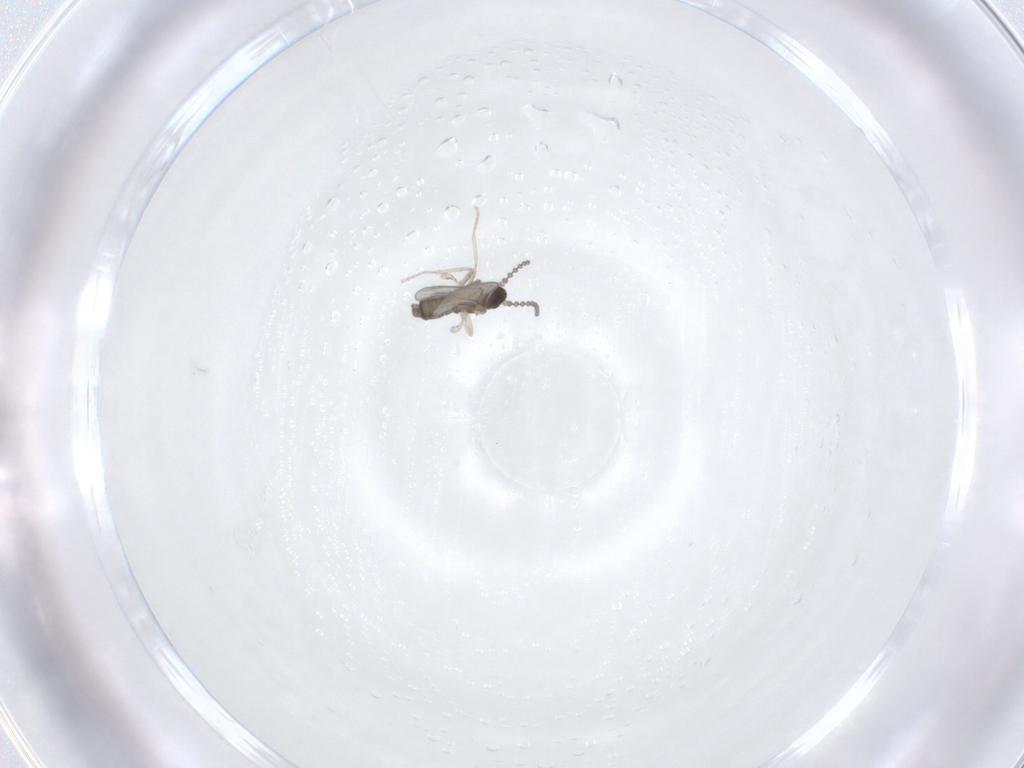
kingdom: Animalia
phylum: Arthropoda
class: Insecta
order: Diptera
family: Cecidomyiidae
